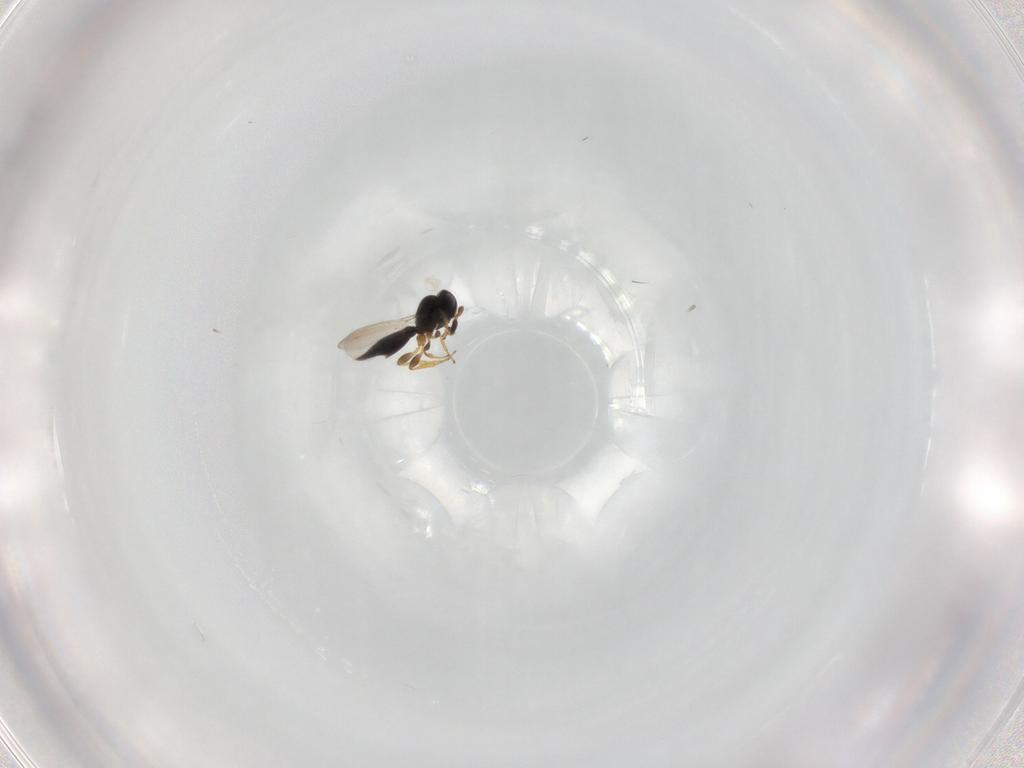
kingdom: Animalia
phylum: Arthropoda
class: Insecta
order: Hymenoptera
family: Platygastridae
